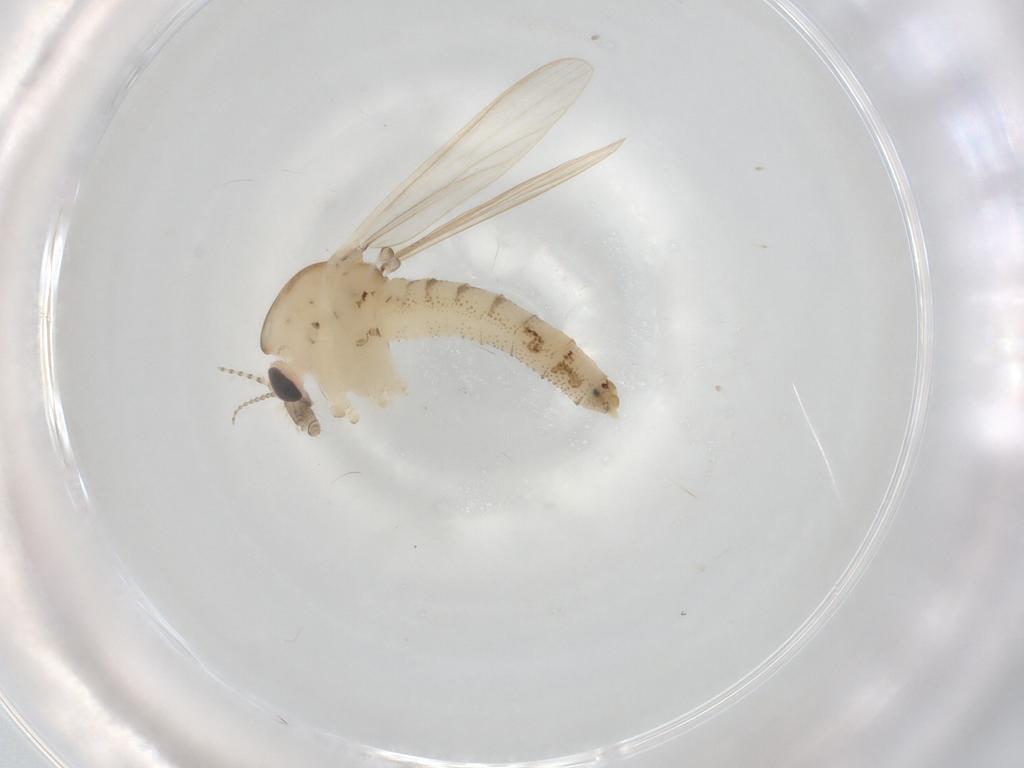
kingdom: Animalia
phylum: Arthropoda
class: Insecta
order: Diptera
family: Chaoboridae
